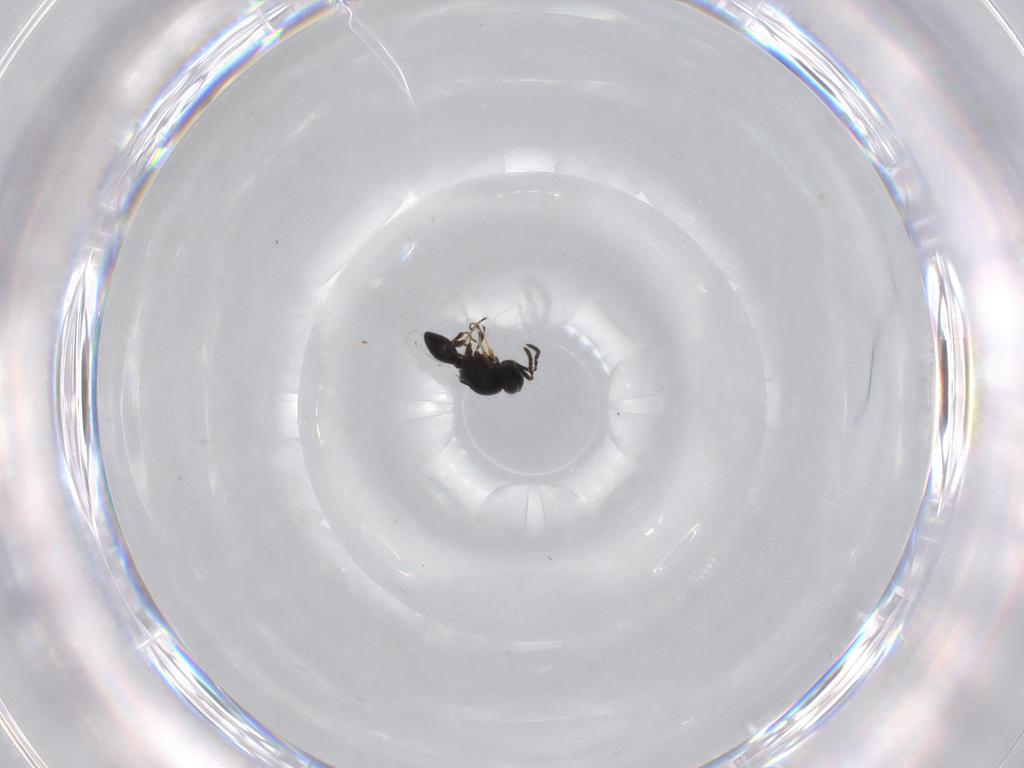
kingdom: Animalia
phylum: Arthropoda
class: Insecta
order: Hymenoptera
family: Platygastridae
